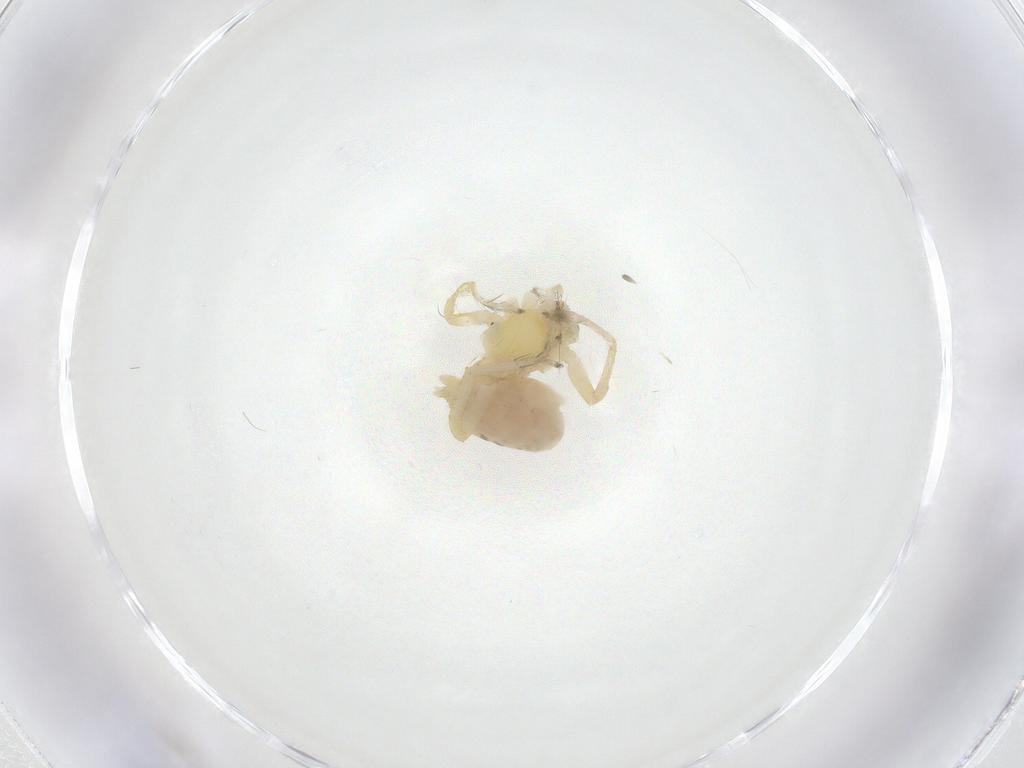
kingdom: Animalia
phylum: Arthropoda
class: Arachnida
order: Araneae
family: Anyphaenidae
